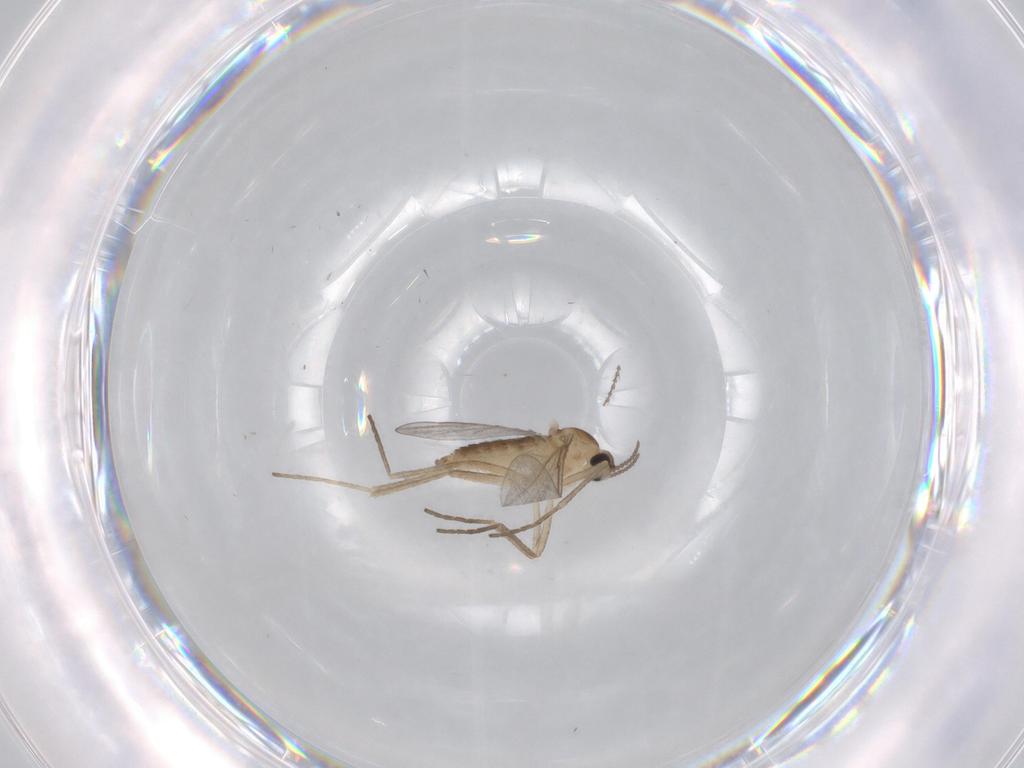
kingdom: Animalia
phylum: Arthropoda
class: Insecta
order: Diptera
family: Cecidomyiidae
